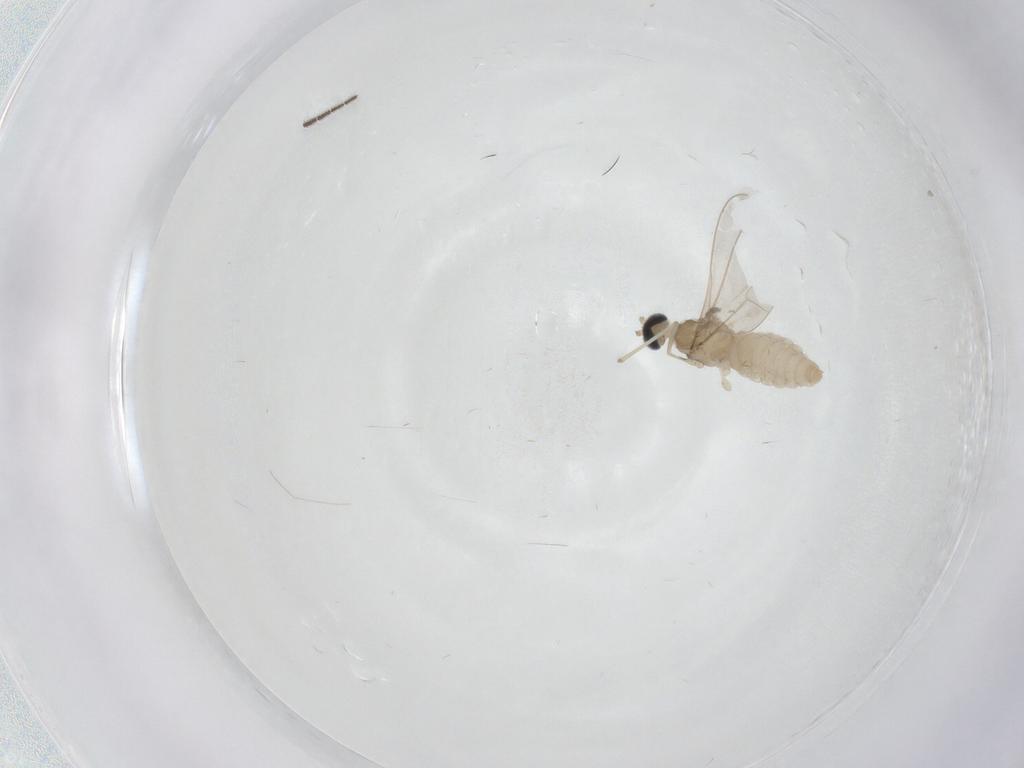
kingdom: Animalia
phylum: Arthropoda
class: Insecta
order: Diptera
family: Cecidomyiidae
